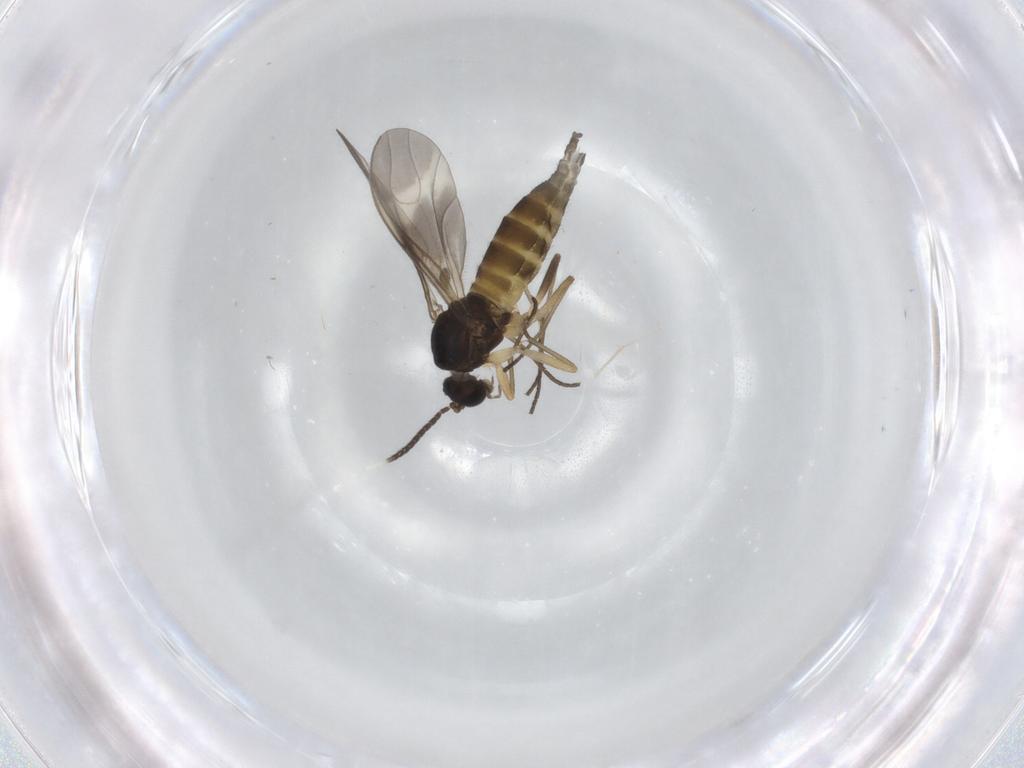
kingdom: Animalia
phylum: Arthropoda
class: Insecta
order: Diptera
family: Sciaridae
